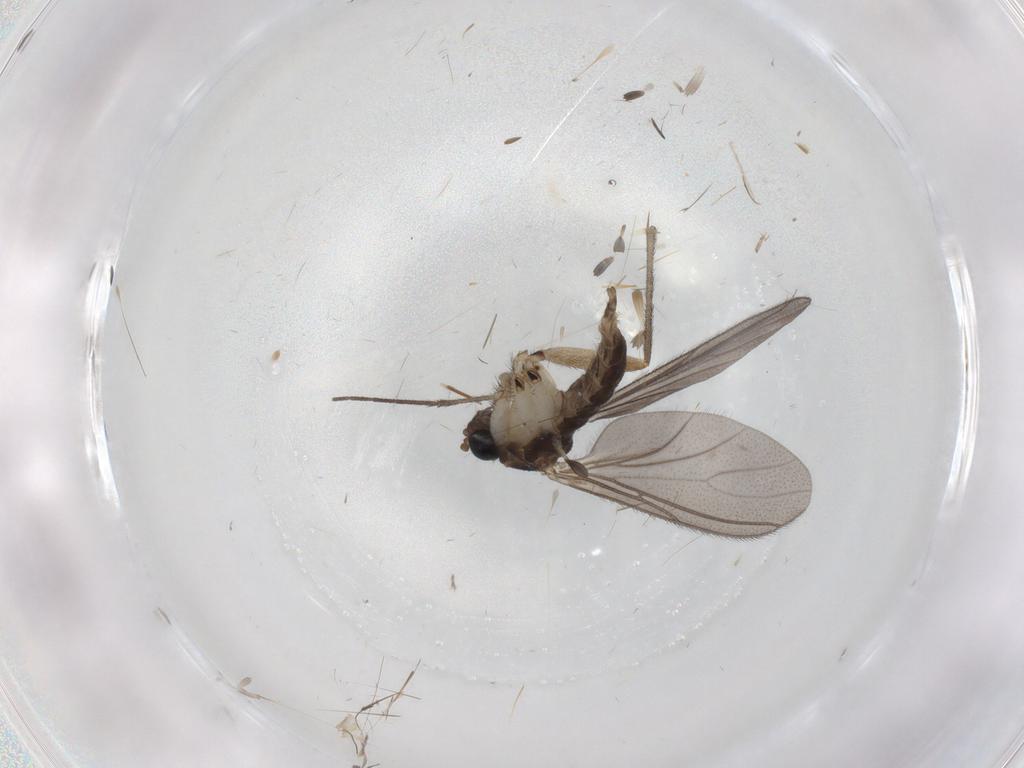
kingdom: Animalia
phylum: Arthropoda
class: Insecta
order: Diptera
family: Sciaridae
